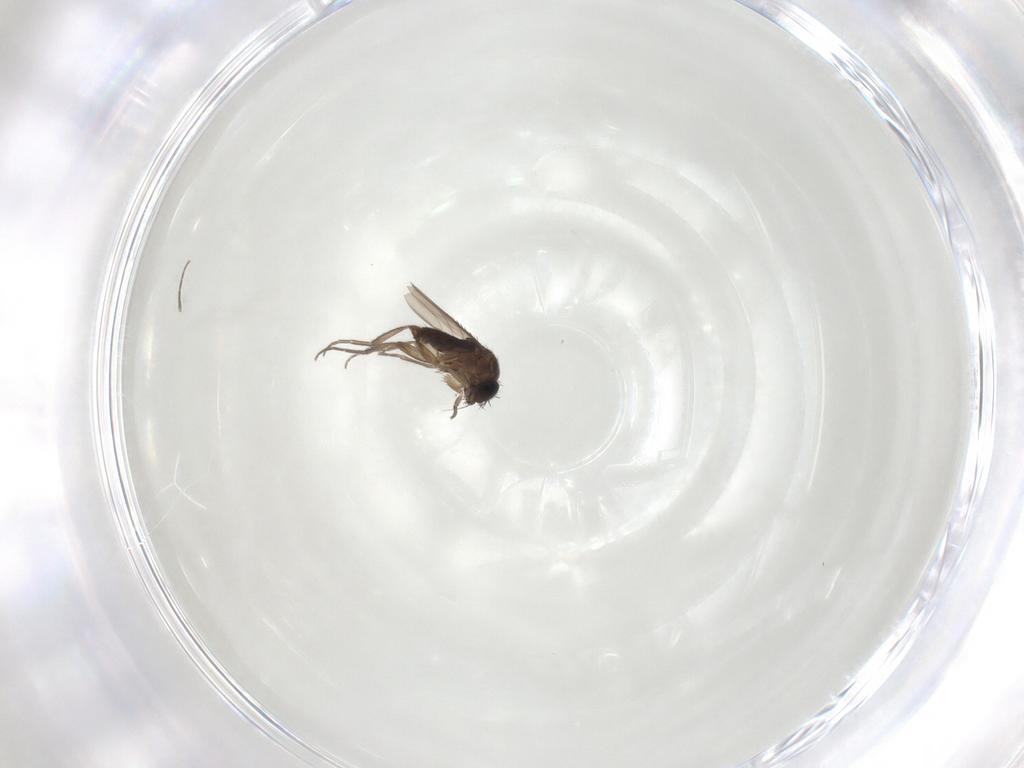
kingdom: Animalia
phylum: Arthropoda
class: Insecta
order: Diptera
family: Phoridae
